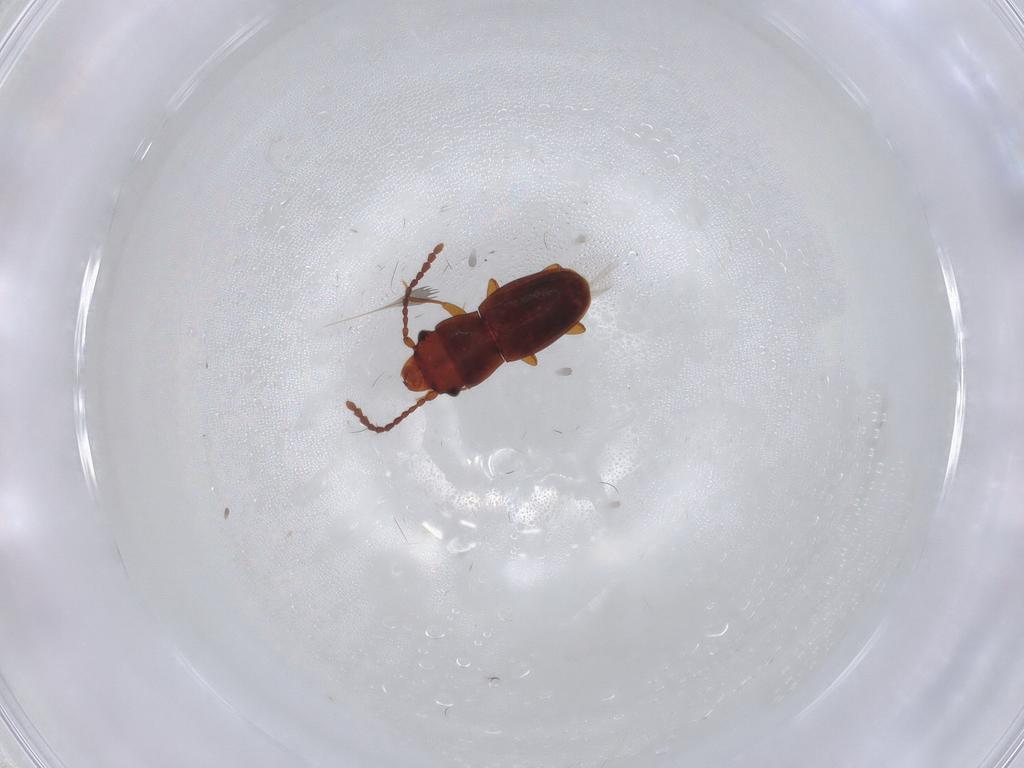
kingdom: Animalia
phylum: Arthropoda
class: Insecta
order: Coleoptera
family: Laemophloeidae
